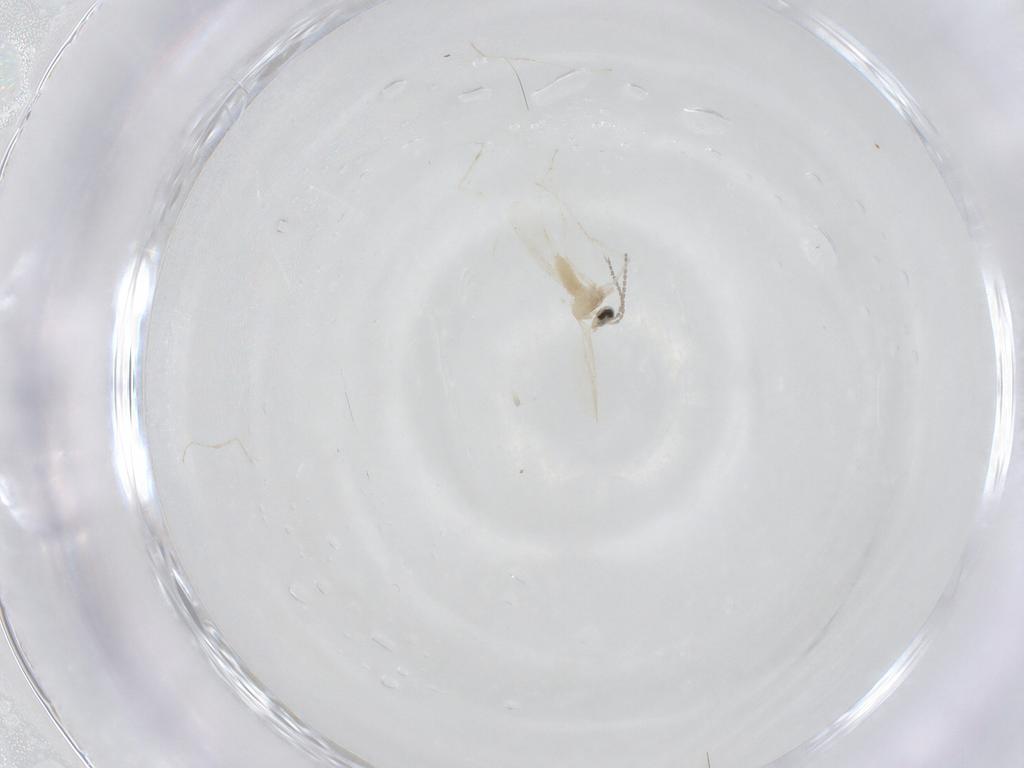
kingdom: Animalia
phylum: Arthropoda
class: Insecta
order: Diptera
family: Cecidomyiidae
